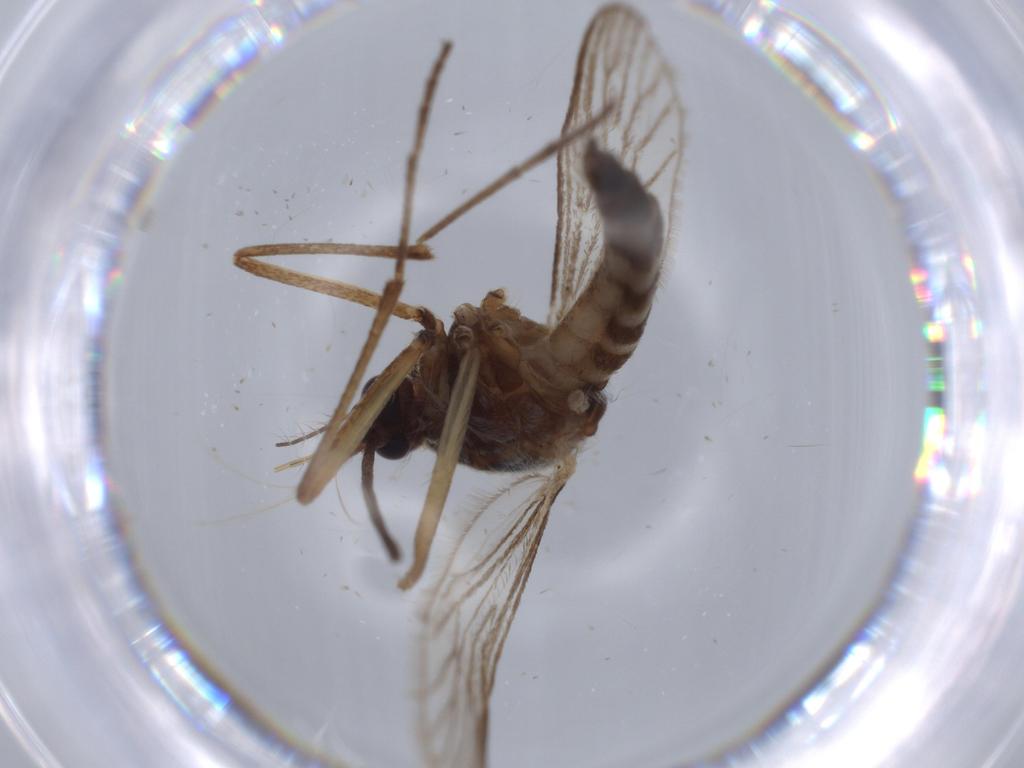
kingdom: Animalia
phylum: Arthropoda
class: Insecta
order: Diptera
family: Culicidae
